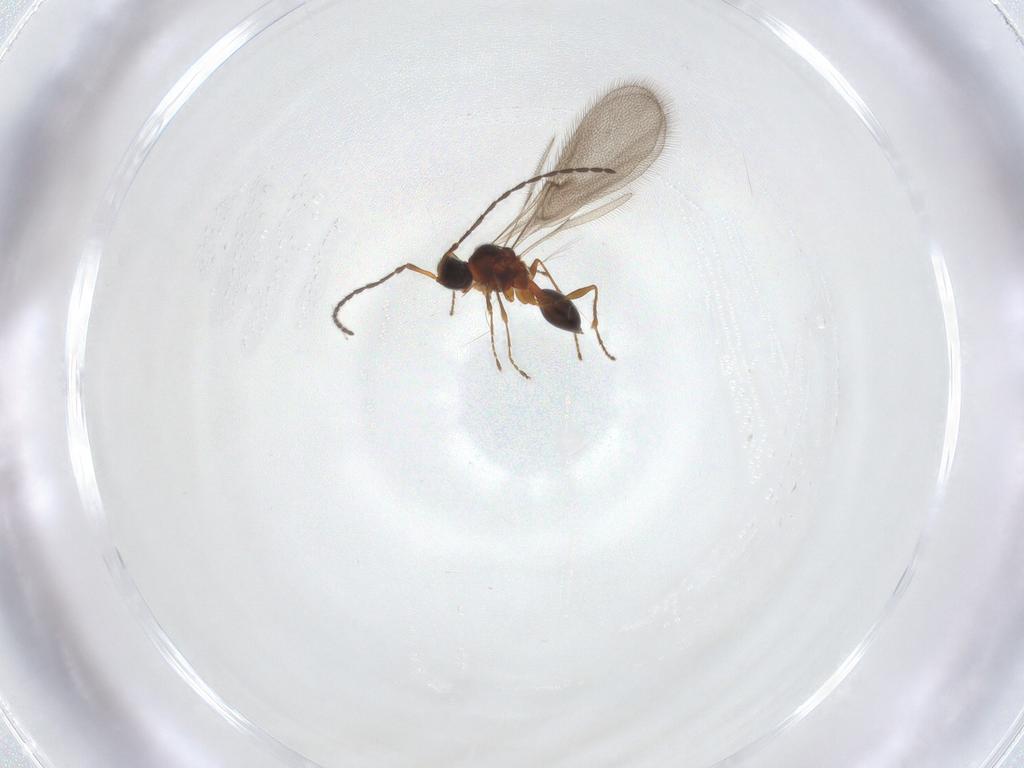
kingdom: Animalia
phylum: Arthropoda
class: Insecta
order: Hymenoptera
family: Diapriidae
